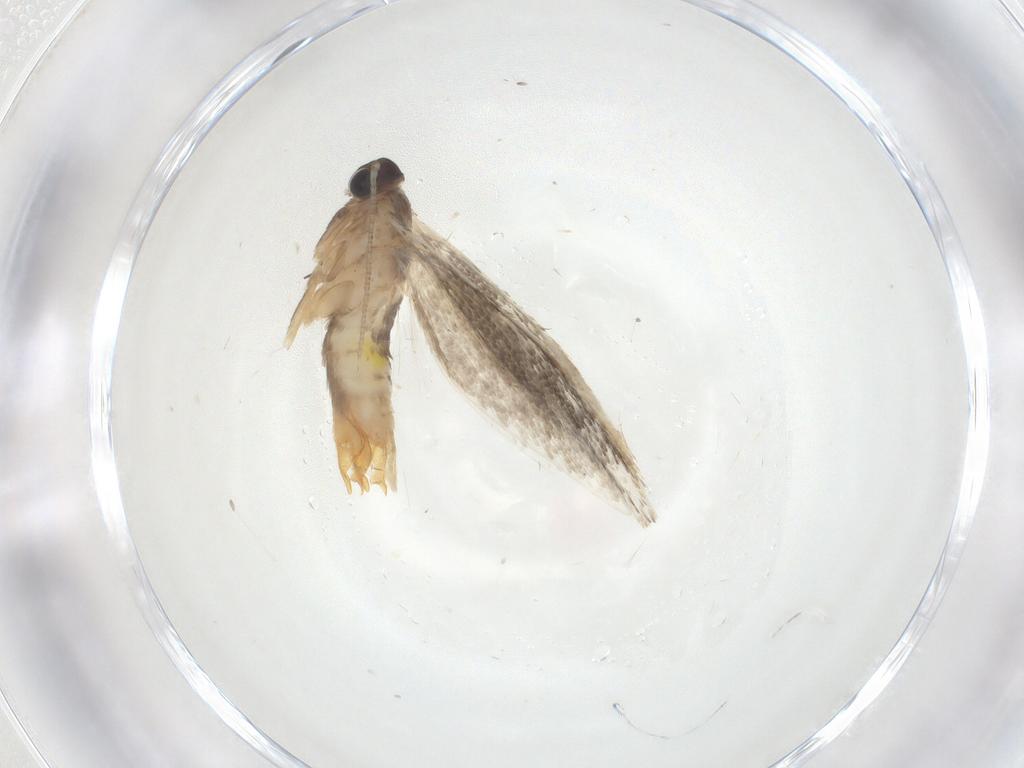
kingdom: Animalia
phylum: Arthropoda
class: Insecta
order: Lepidoptera
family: Tineidae
